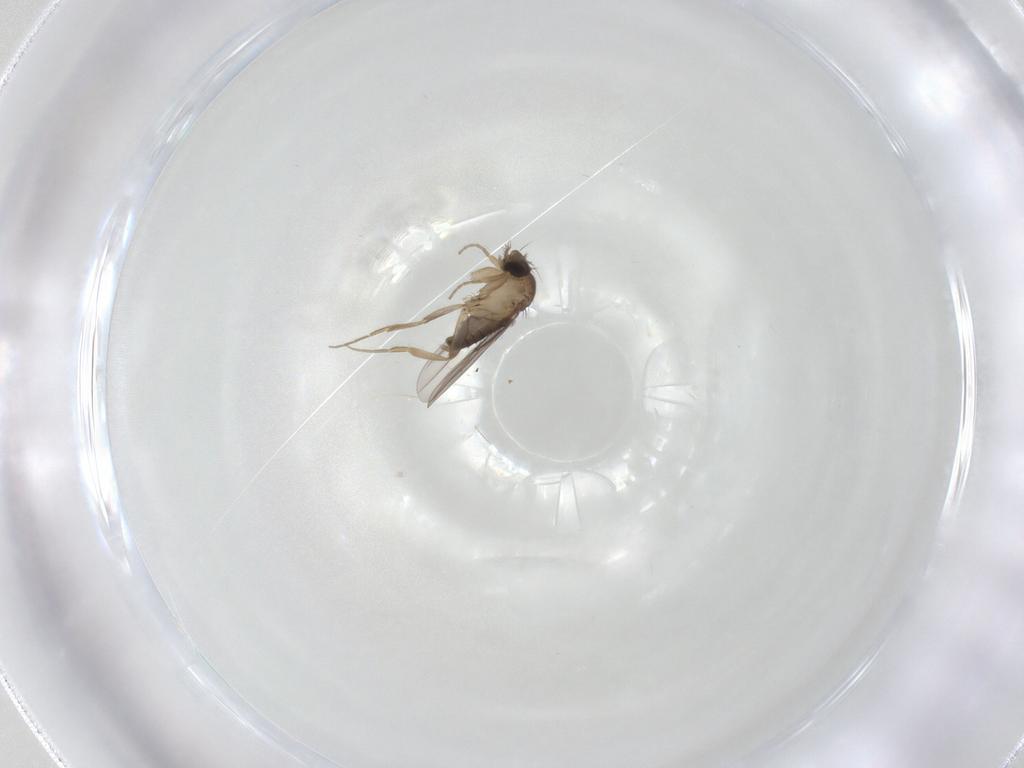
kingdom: Animalia
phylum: Arthropoda
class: Insecta
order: Diptera
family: Phoridae
